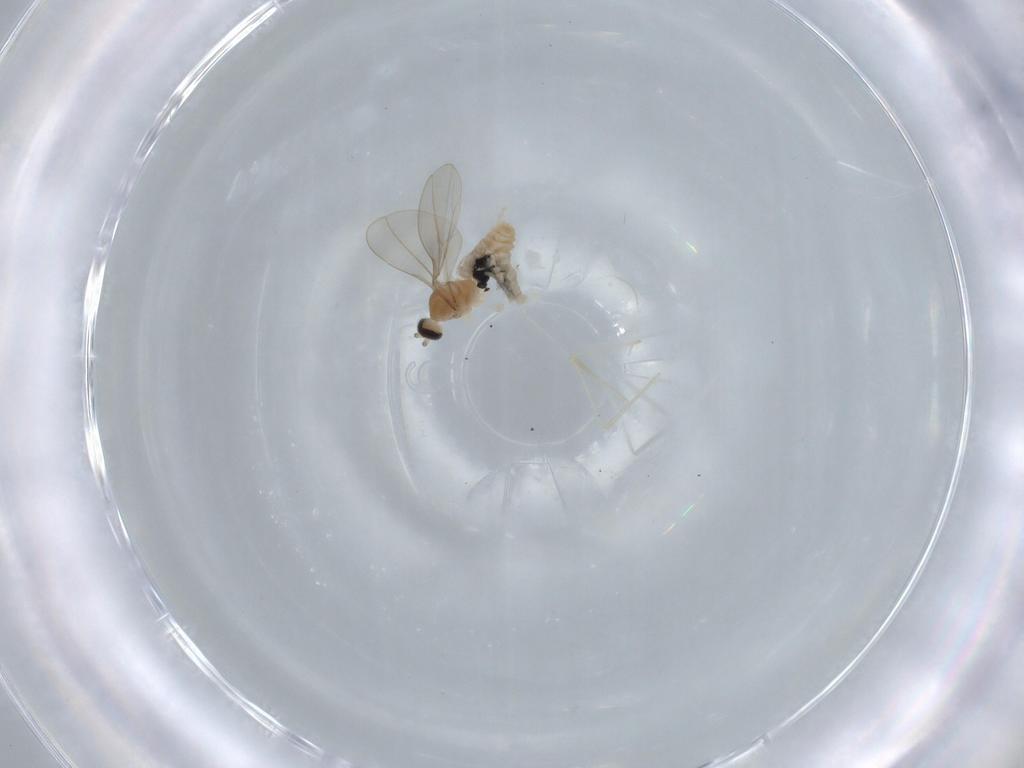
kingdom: Animalia
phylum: Arthropoda
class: Insecta
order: Diptera
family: Cecidomyiidae
